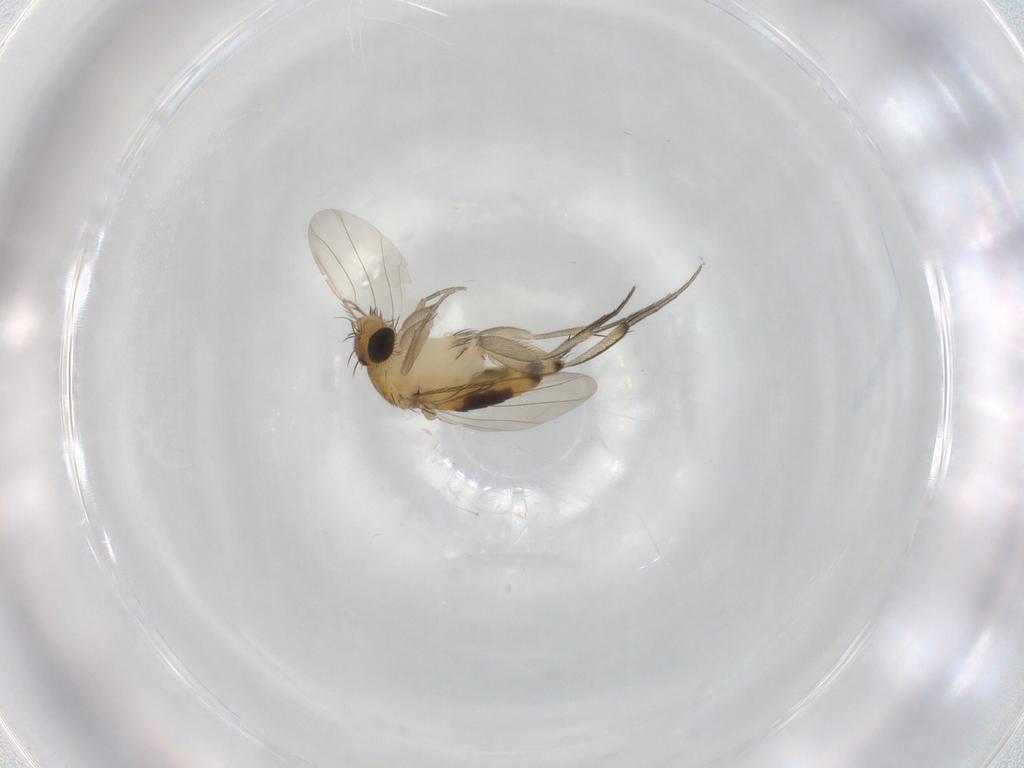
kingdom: Animalia
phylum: Arthropoda
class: Insecta
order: Diptera
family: Phoridae
